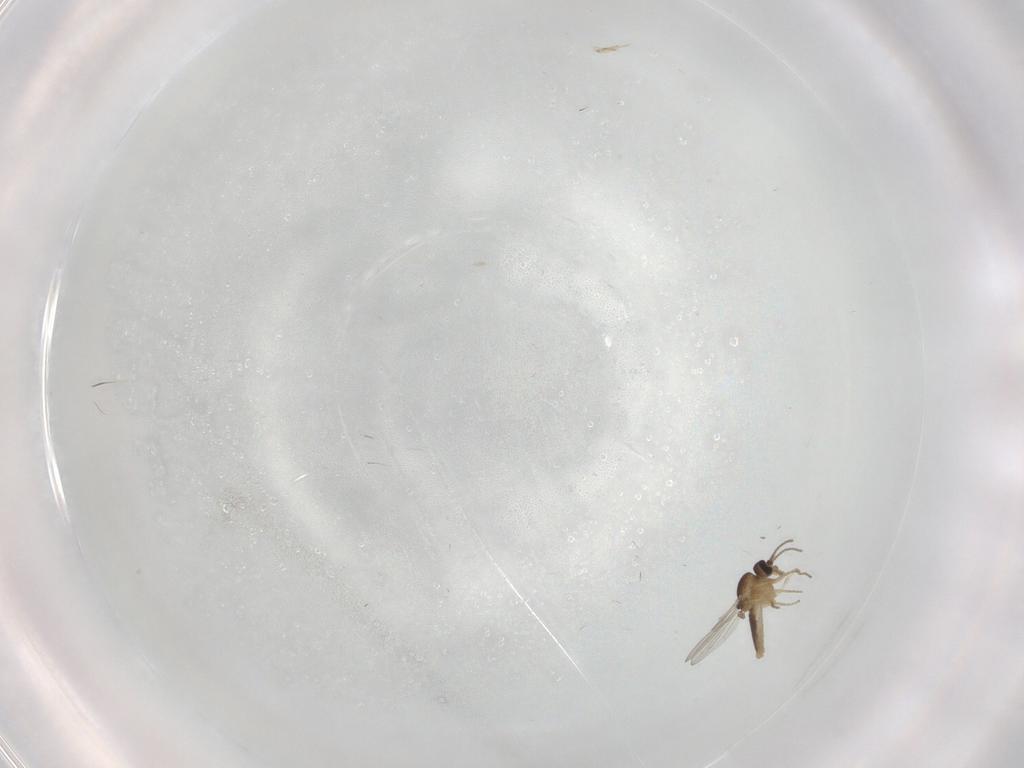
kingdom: Animalia
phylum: Arthropoda
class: Insecta
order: Diptera
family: Ceratopogonidae
